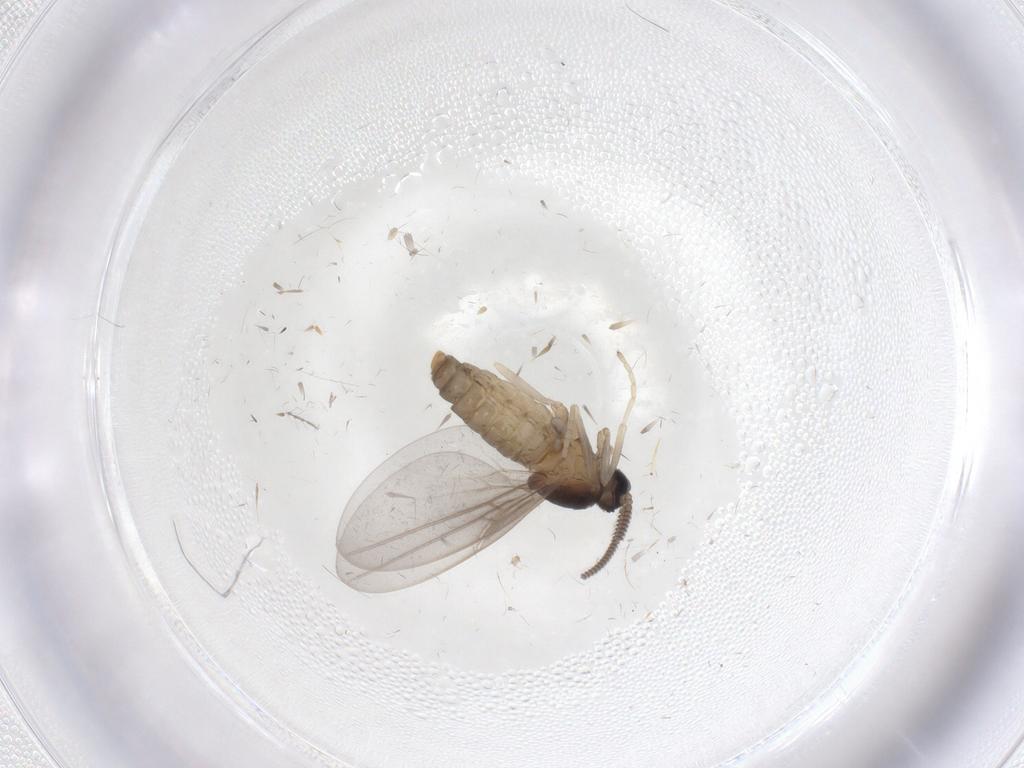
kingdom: Animalia
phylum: Arthropoda
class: Insecta
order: Diptera
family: Cecidomyiidae
